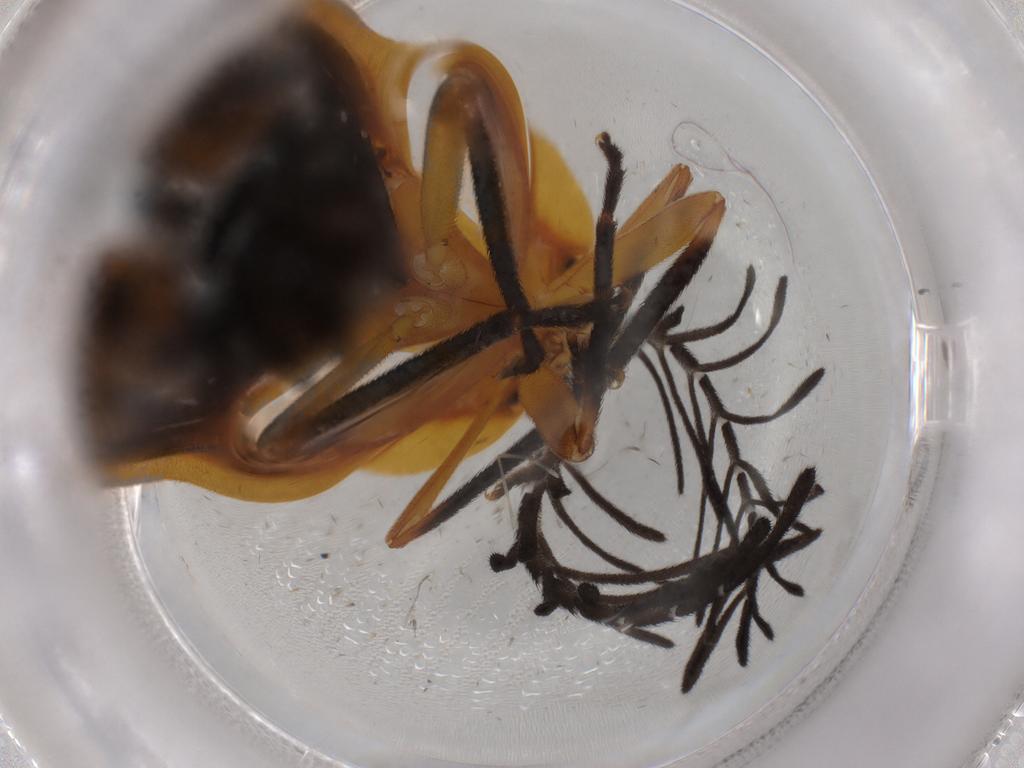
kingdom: Animalia
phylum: Arthropoda
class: Insecta
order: Coleoptera
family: Lampyridae
